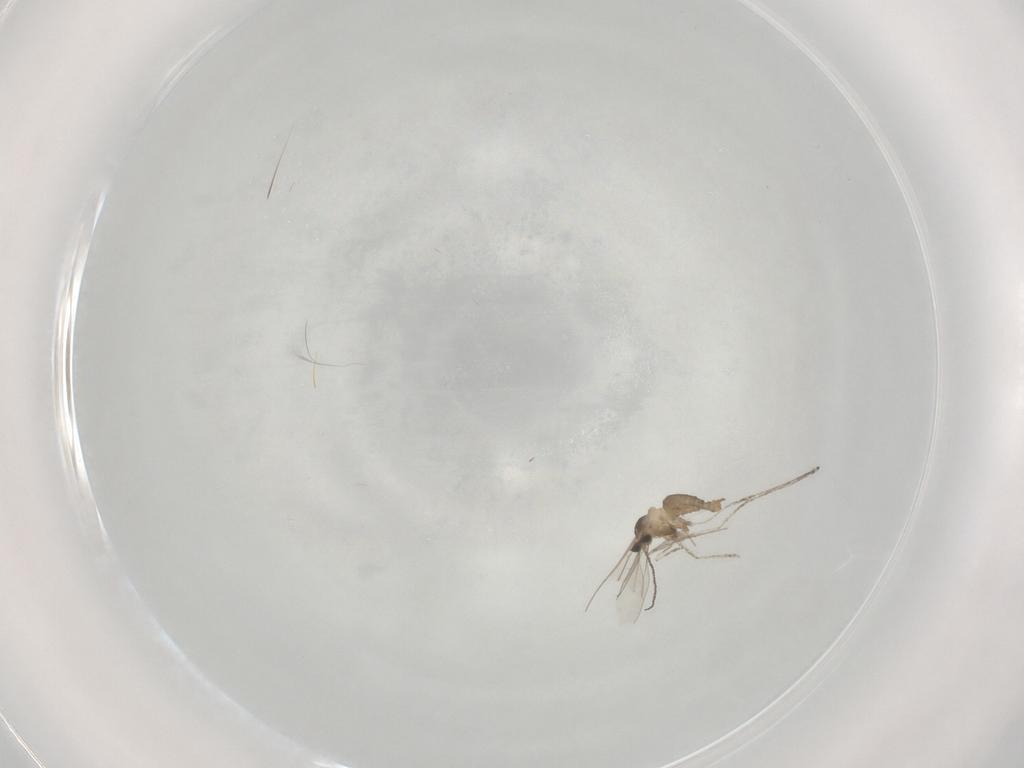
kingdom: Animalia
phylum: Arthropoda
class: Insecta
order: Diptera
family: Cecidomyiidae
